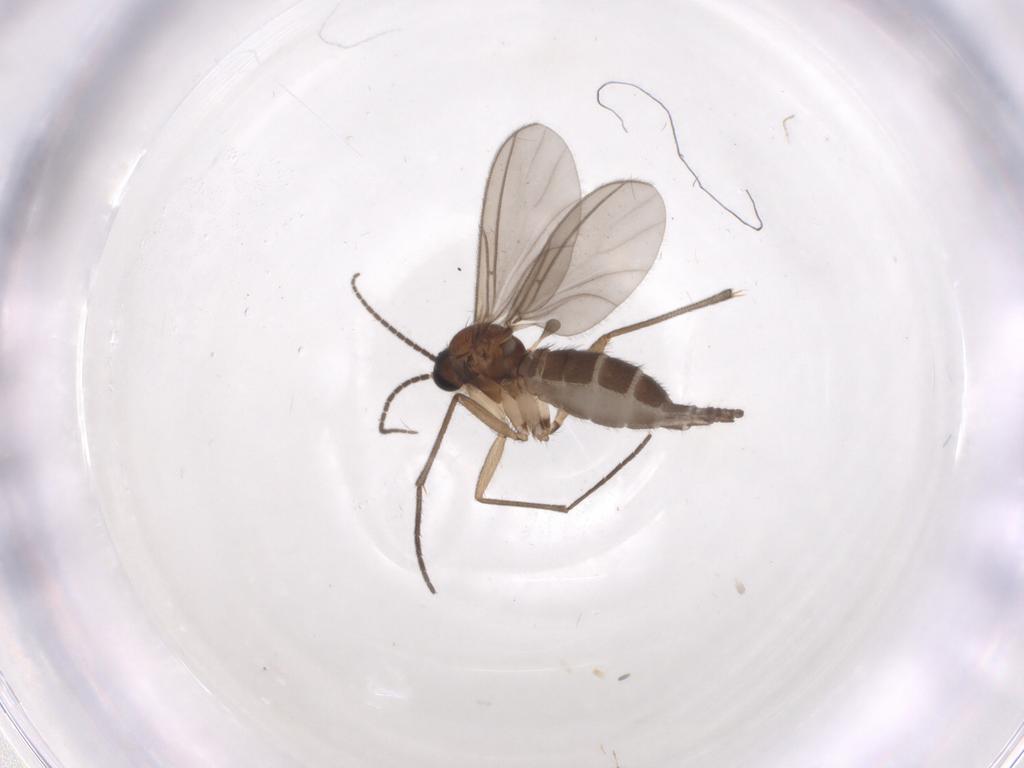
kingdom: Animalia
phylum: Arthropoda
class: Insecta
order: Diptera
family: Sciaridae
